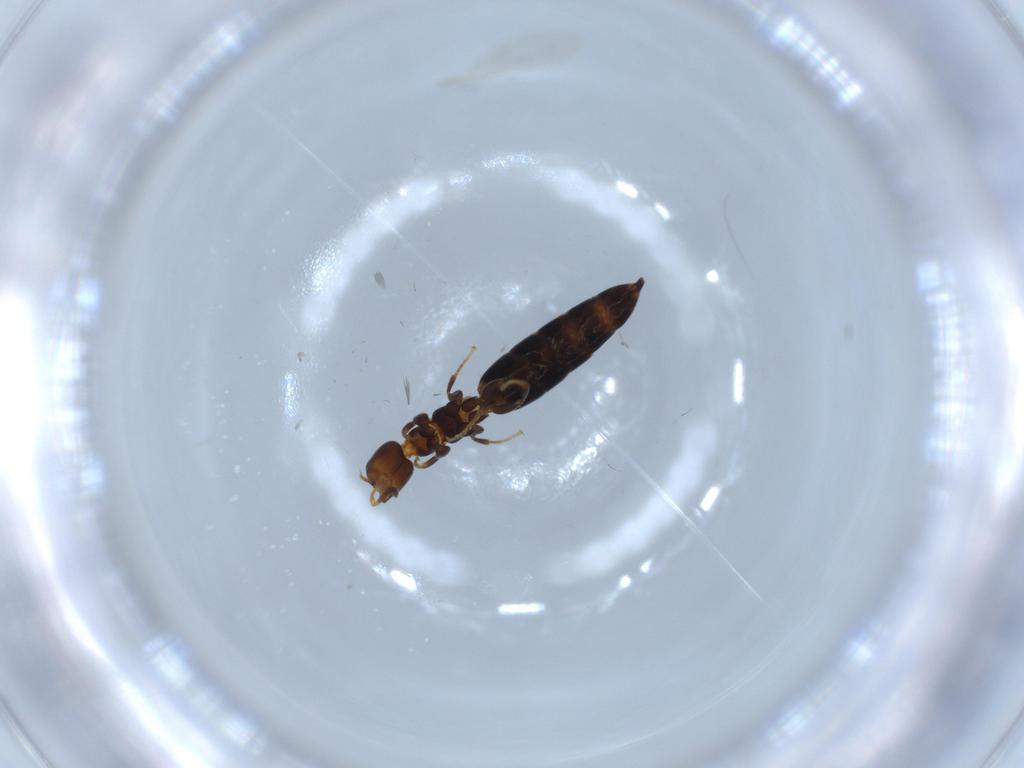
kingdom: Animalia
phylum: Arthropoda
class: Insecta
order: Hymenoptera
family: Bethylidae
